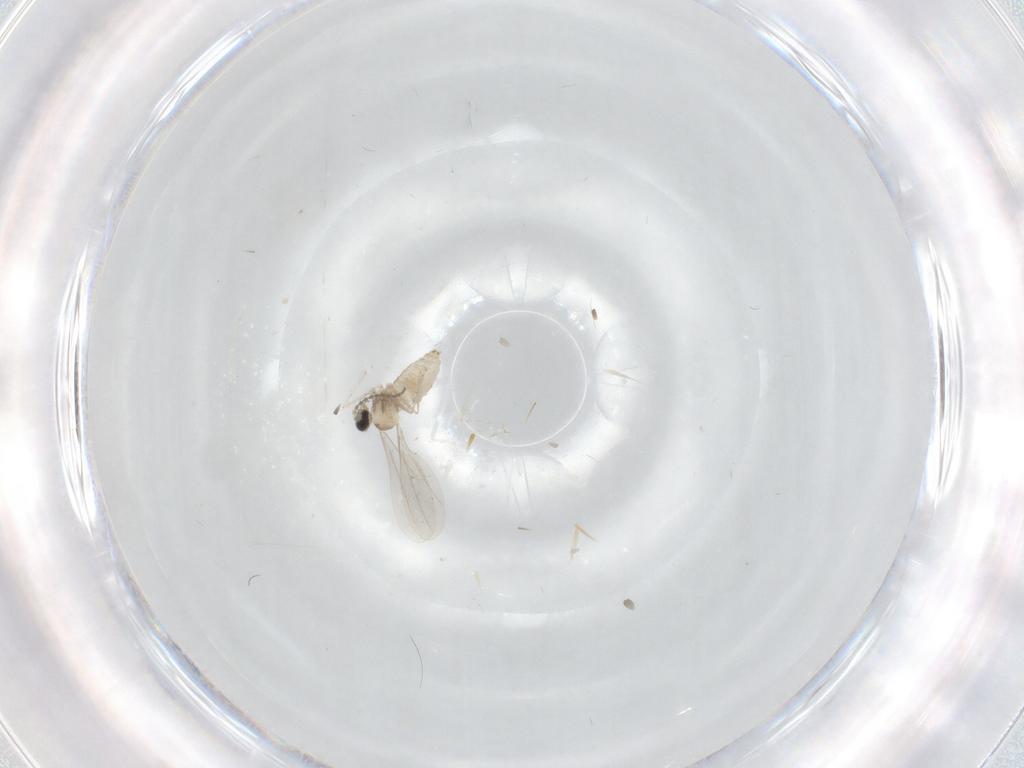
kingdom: Animalia
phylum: Arthropoda
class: Insecta
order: Diptera
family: Cecidomyiidae
